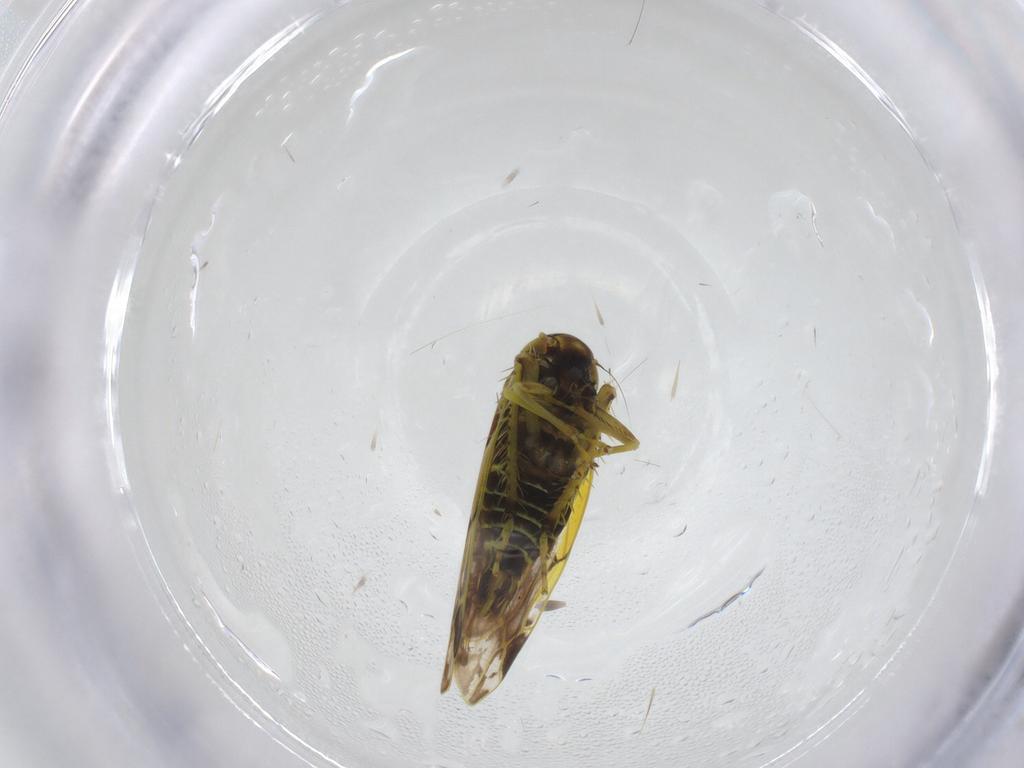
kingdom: Animalia
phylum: Arthropoda
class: Insecta
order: Hemiptera
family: Cicadellidae
